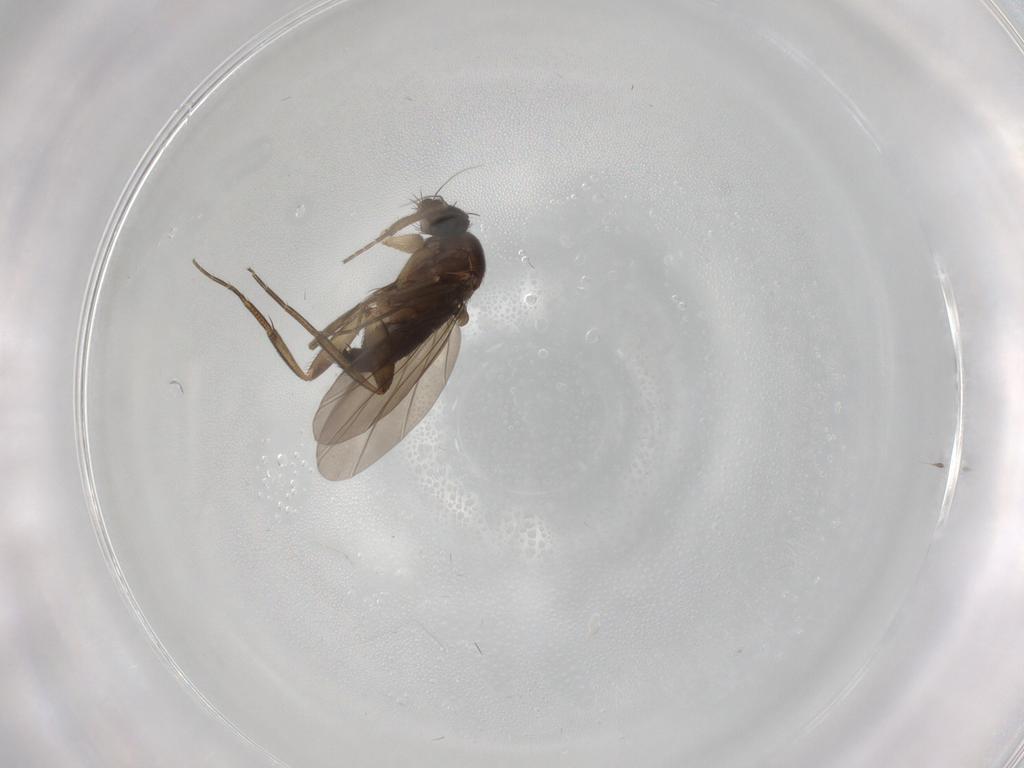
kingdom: Animalia
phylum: Arthropoda
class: Insecta
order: Diptera
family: Phoridae
